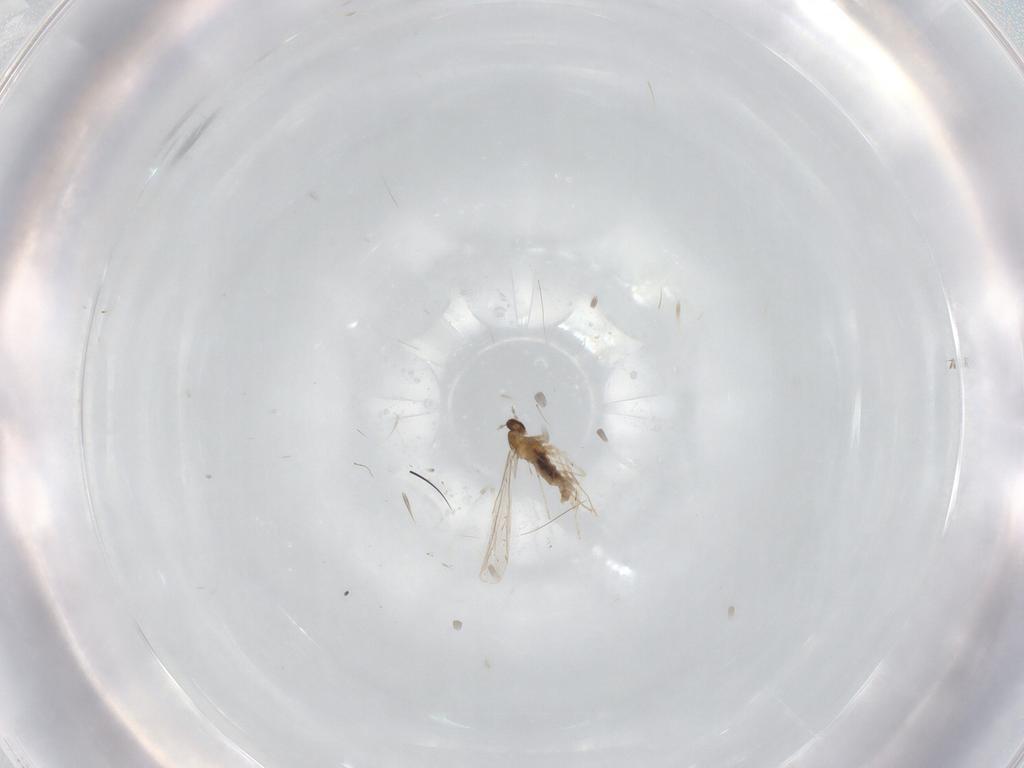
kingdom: Animalia
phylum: Arthropoda
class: Insecta
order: Diptera
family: Cecidomyiidae
